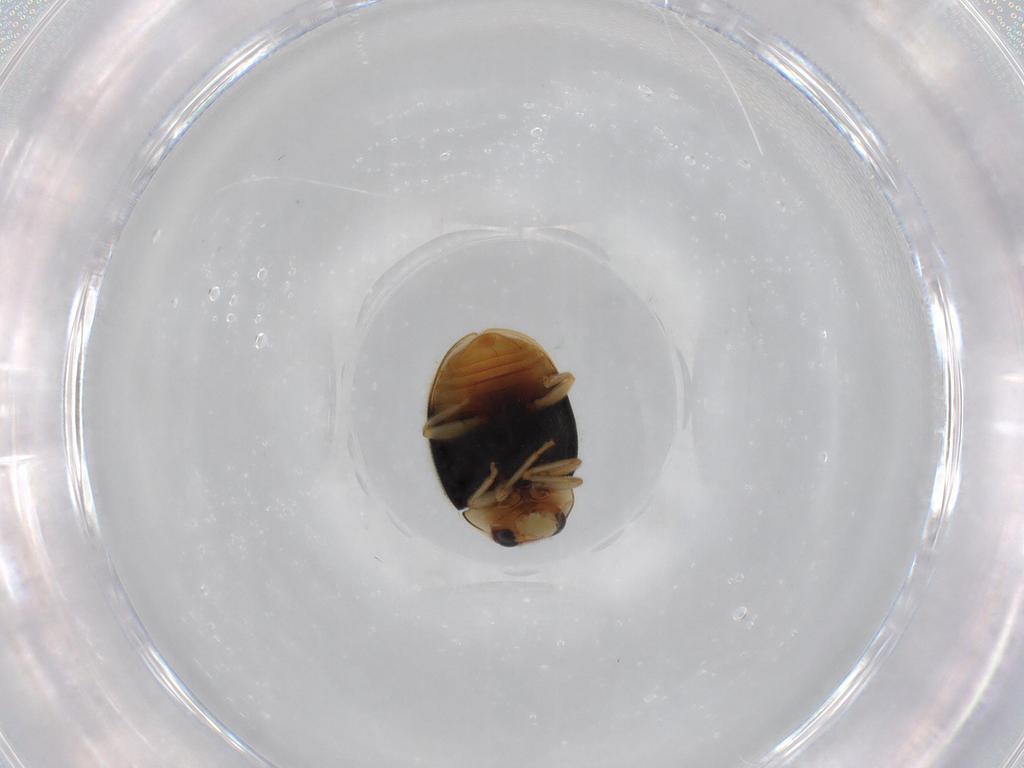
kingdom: Animalia
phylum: Arthropoda
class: Insecta
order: Coleoptera
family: Coccinellidae
